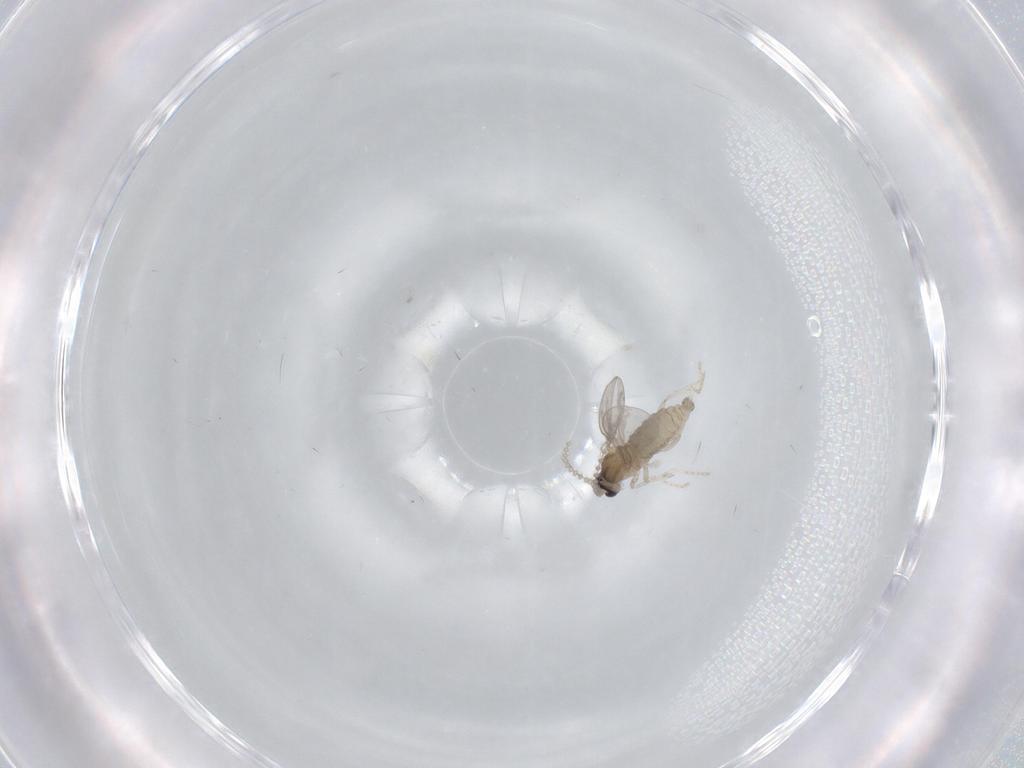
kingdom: Animalia
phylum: Arthropoda
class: Insecta
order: Diptera
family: Cecidomyiidae
